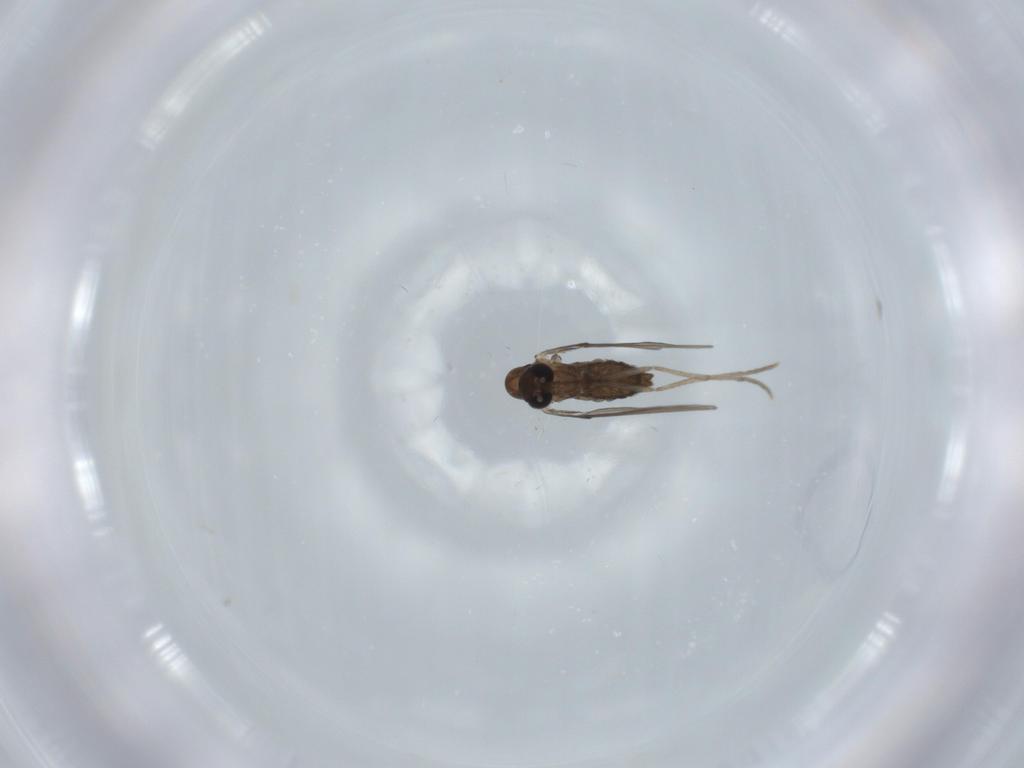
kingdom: Animalia
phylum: Arthropoda
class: Insecta
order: Diptera
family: Psychodidae
